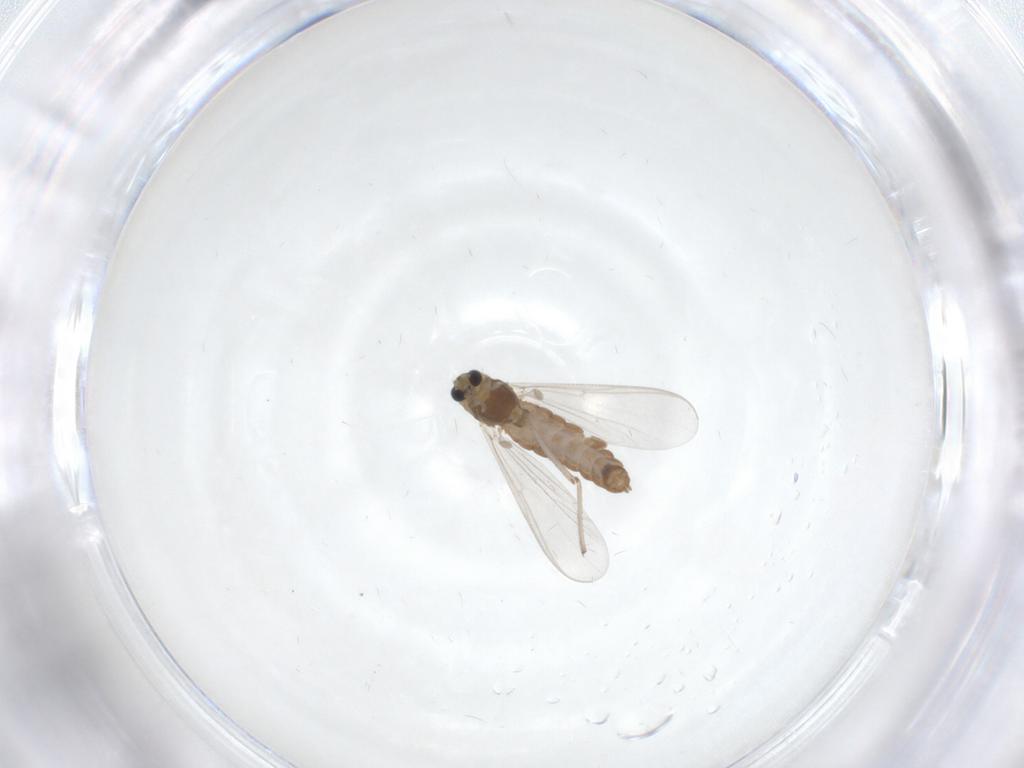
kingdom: Animalia
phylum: Arthropoda
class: Insecta
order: Diptera
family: Chironomidae
